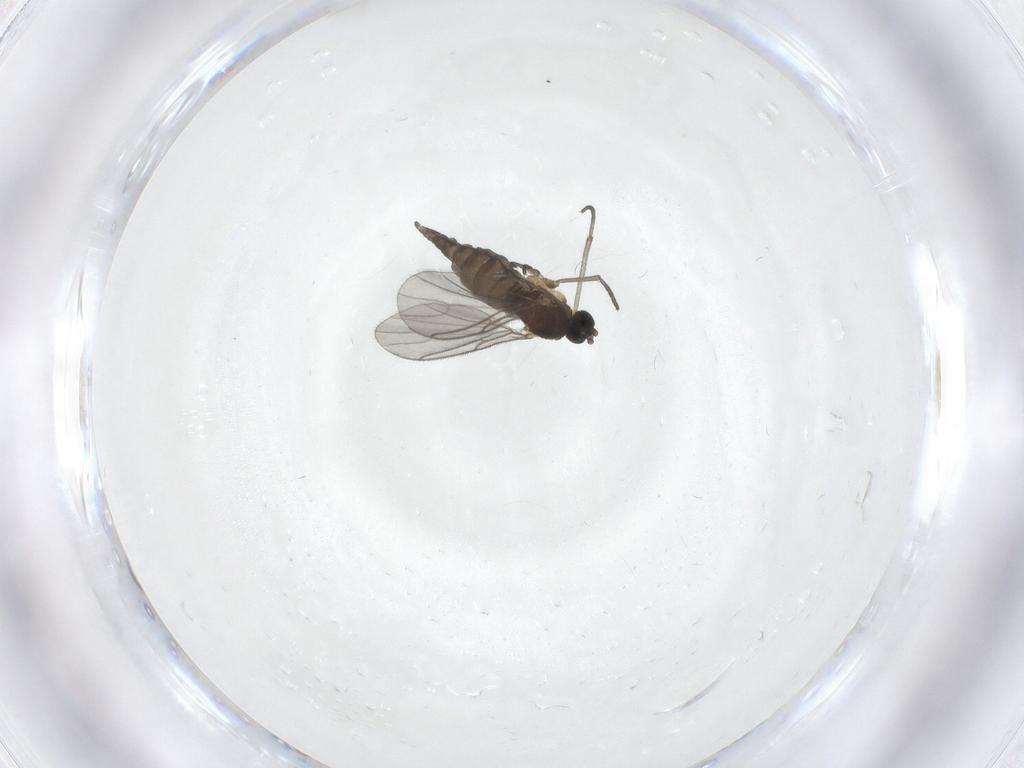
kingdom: Animalia
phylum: Arthropoda
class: Insecta
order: Diptera
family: Sciaridae
